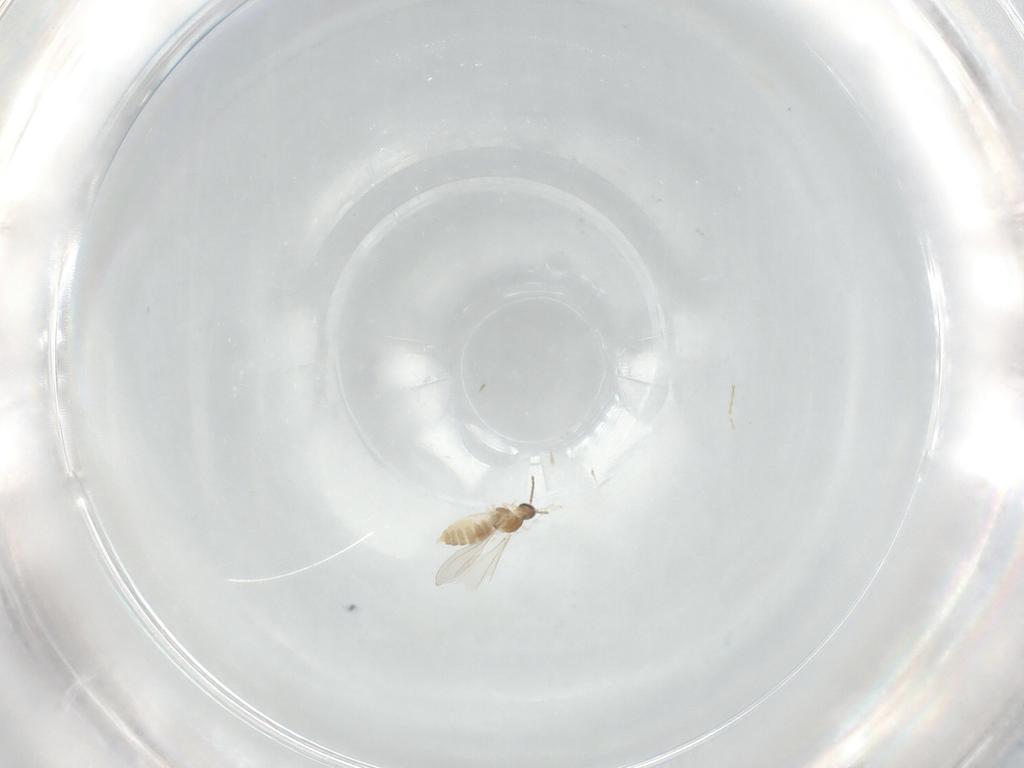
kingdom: Animalia
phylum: Arthropoda
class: Insecta
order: Diptera
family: Cecidomyiidae
